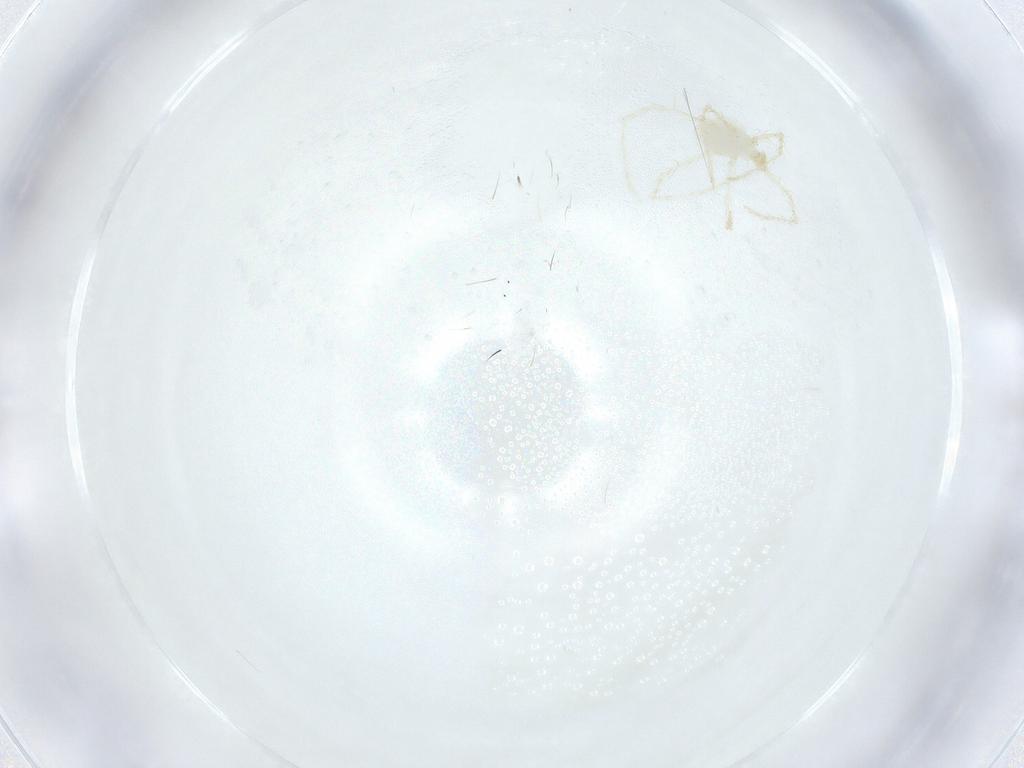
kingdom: Animalia
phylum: Arthropoda
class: Arachnida
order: Trombidiformes
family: Erythraeidae
